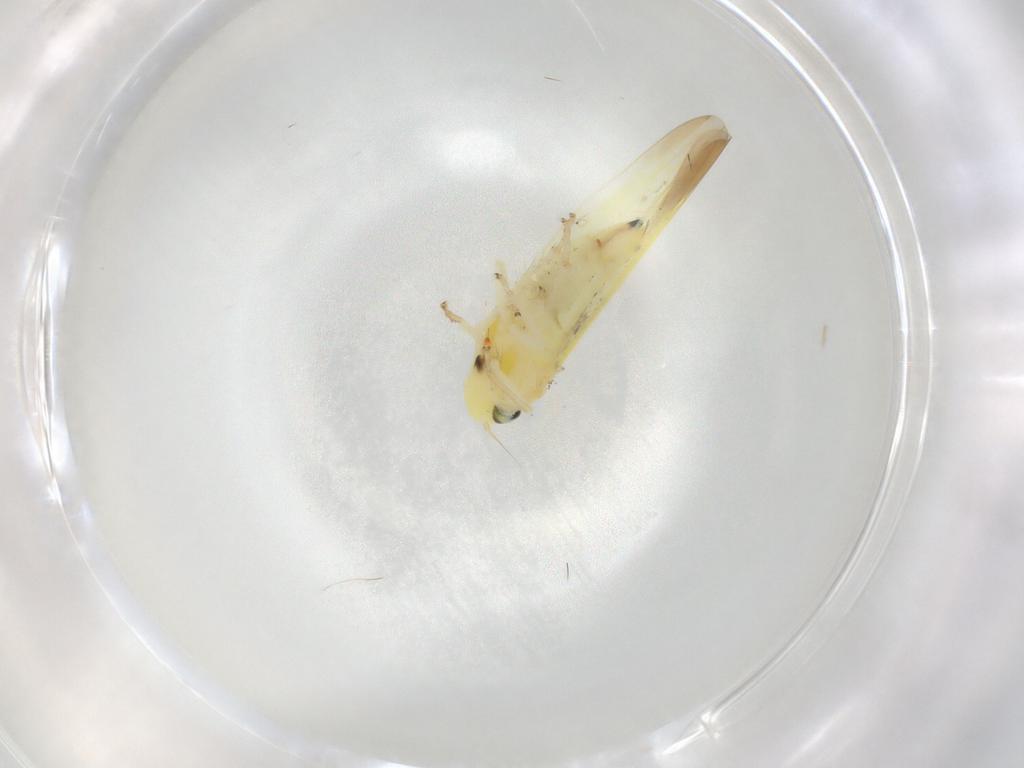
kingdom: Animalia
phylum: Arthropoda
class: Insecta
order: Hemiptera
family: Cicadellidae
